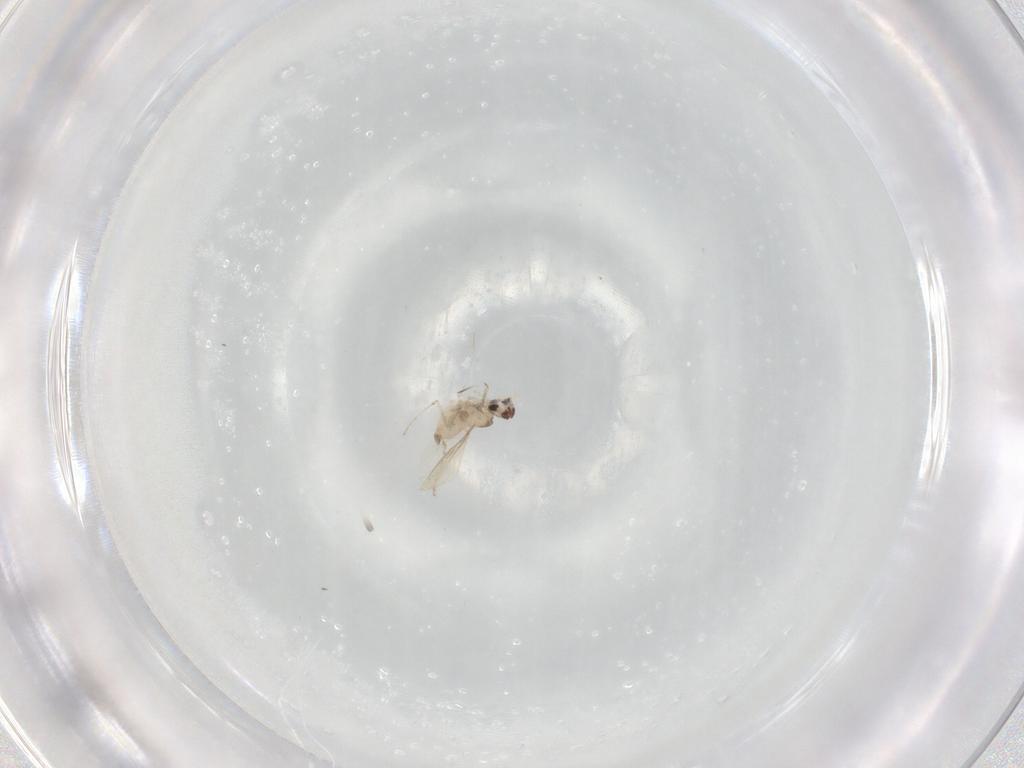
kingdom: Animalia
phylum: Arthropoda
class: Insecta
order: Diptera
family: Cecidomyiidae
